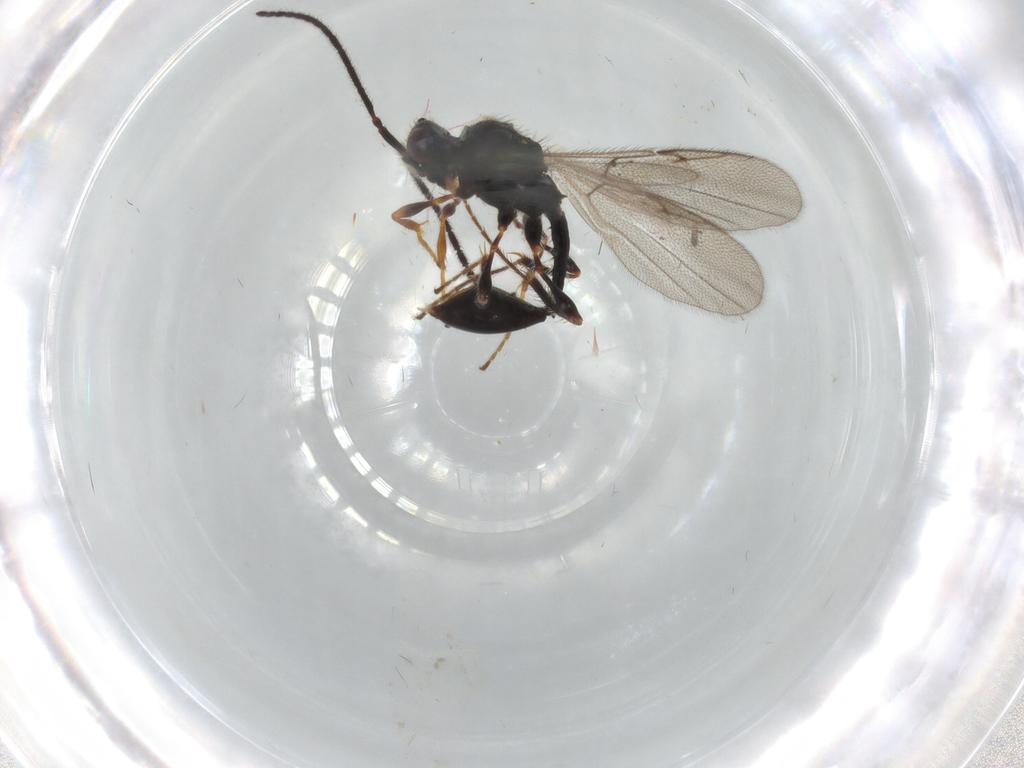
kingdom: Animalia
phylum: Arthropoda
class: Insecta
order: Hymenoptera
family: Diapriidae
